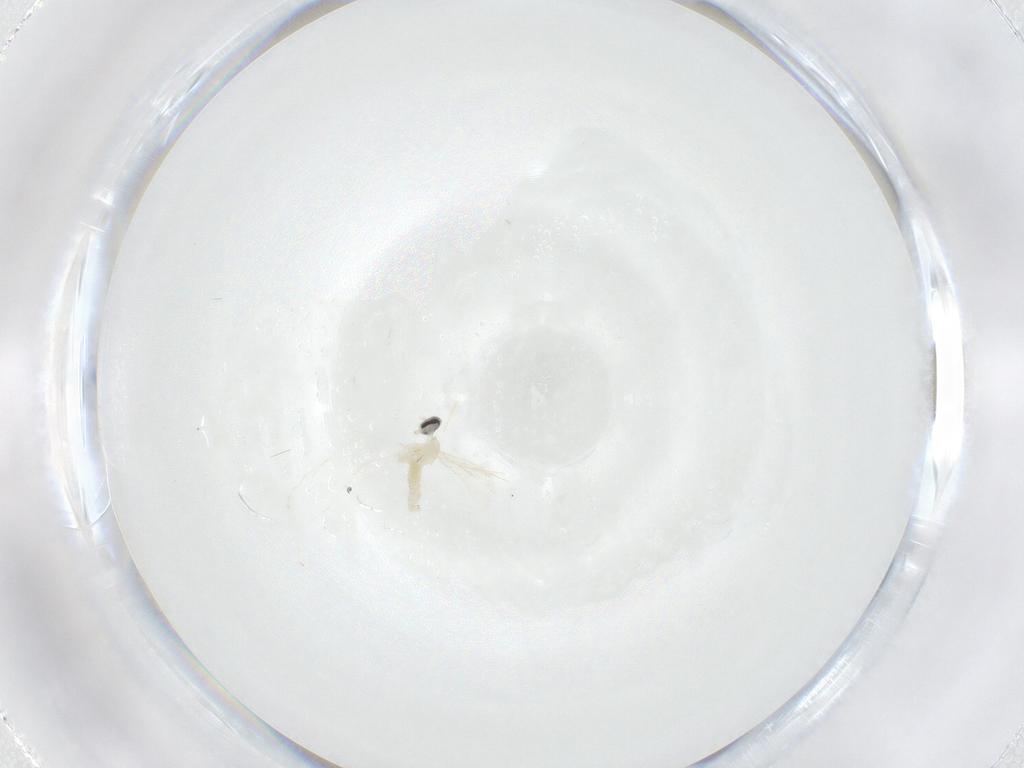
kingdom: Animalia
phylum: Arthropoda
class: Insecta
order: Diptera
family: Cecidomyiidae
